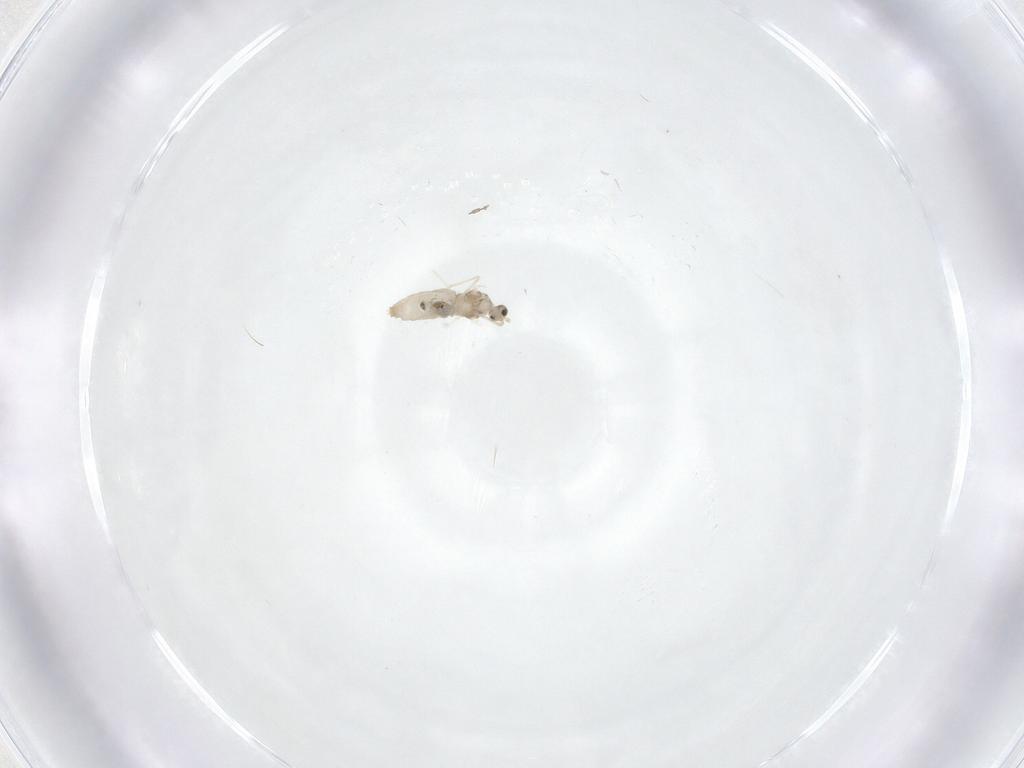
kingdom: Animalia
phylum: Arthropoda
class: Insecta
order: Diptera
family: Cecidomyiidae
